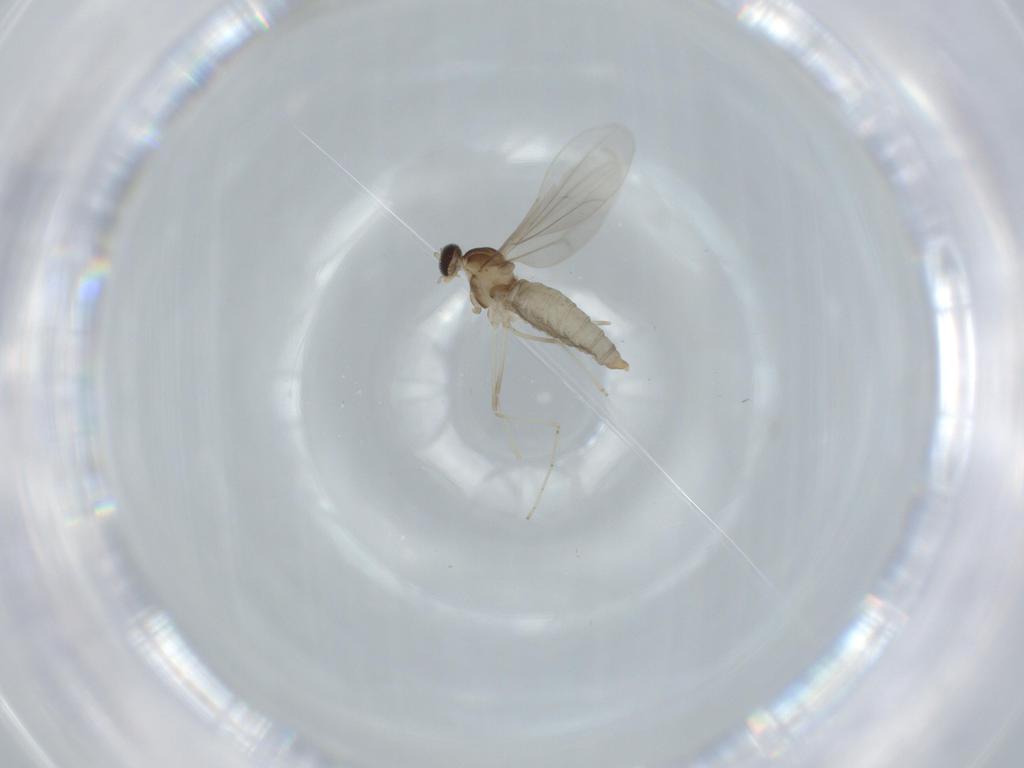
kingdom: Animalia
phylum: Arthropoda
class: Insecta
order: Diptera
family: Cecidomyiidae
